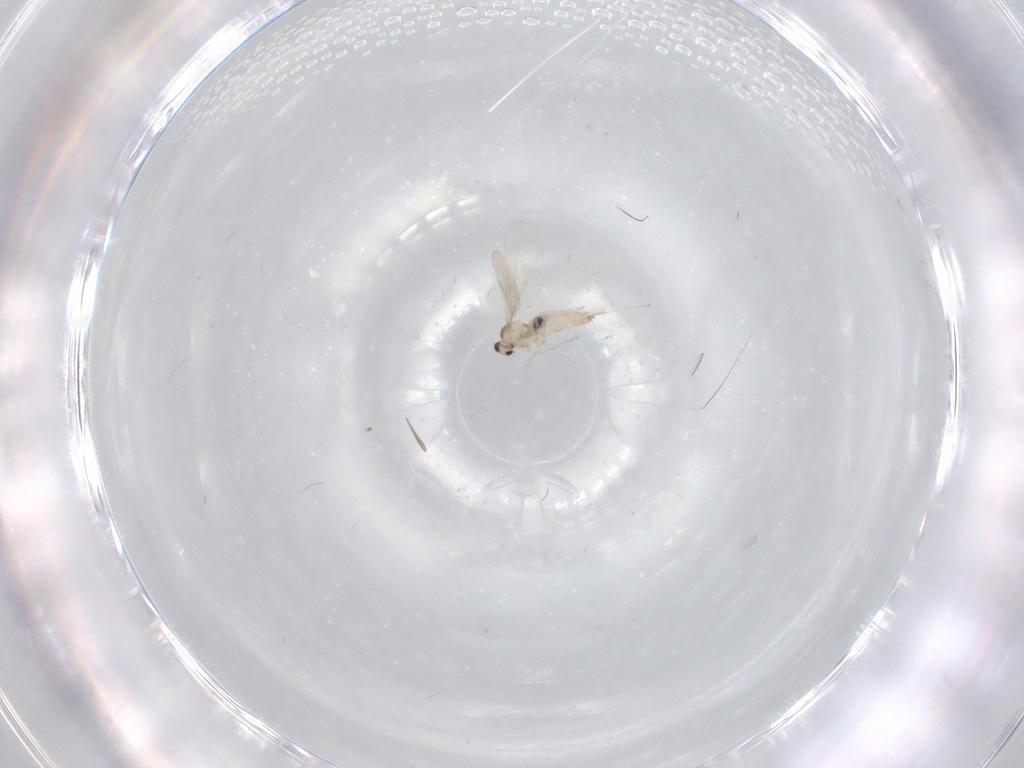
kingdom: Animalia
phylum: Arthropoda
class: Insecta
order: Diptera
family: Cecidomyiidae
